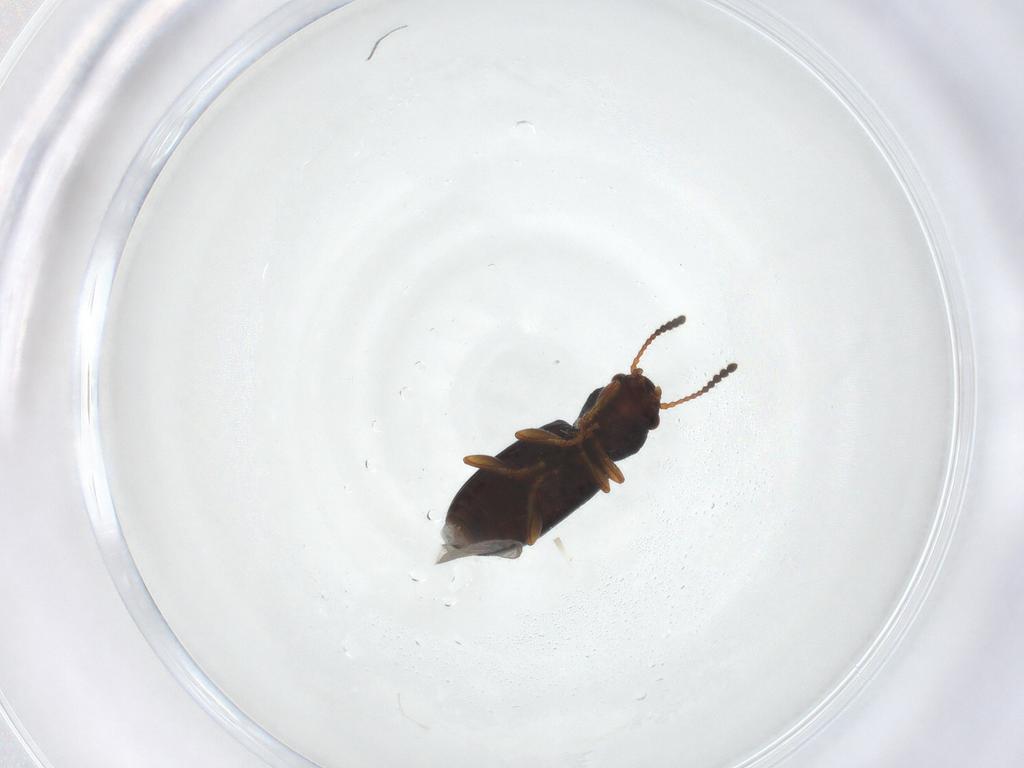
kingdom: Animalia
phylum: Arthropoda
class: Insecta
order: Coleoptera
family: Salpingidae
